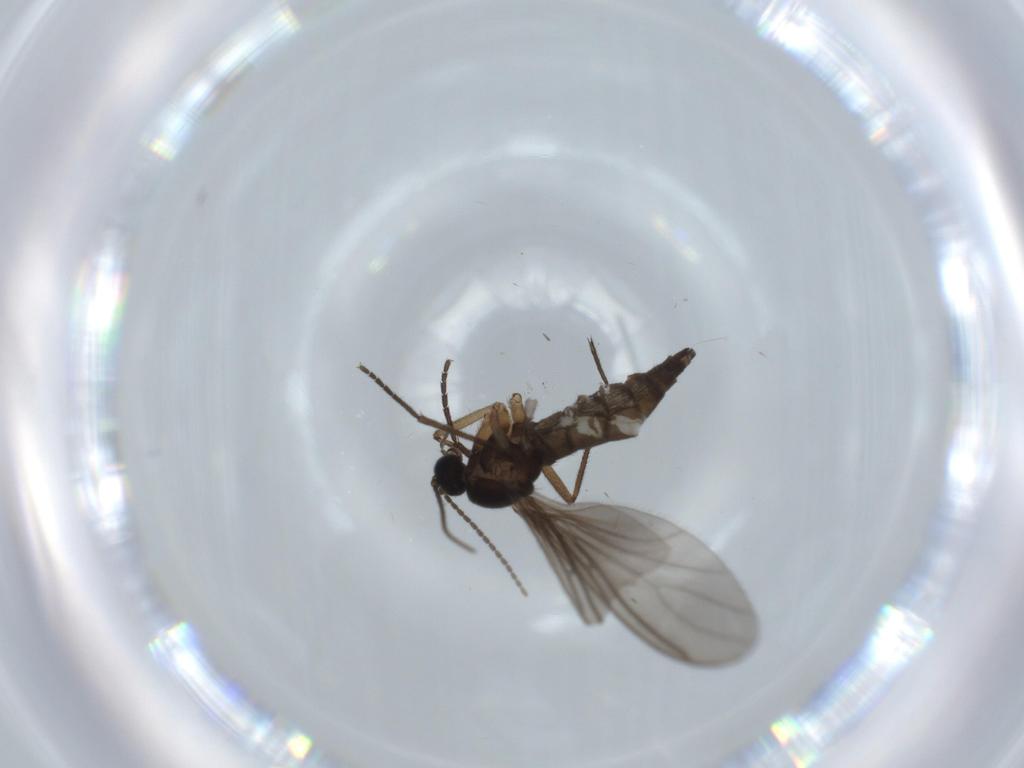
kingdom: Animalia
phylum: Arthropoda
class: Insecta
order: Diptera
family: Sciaridae
